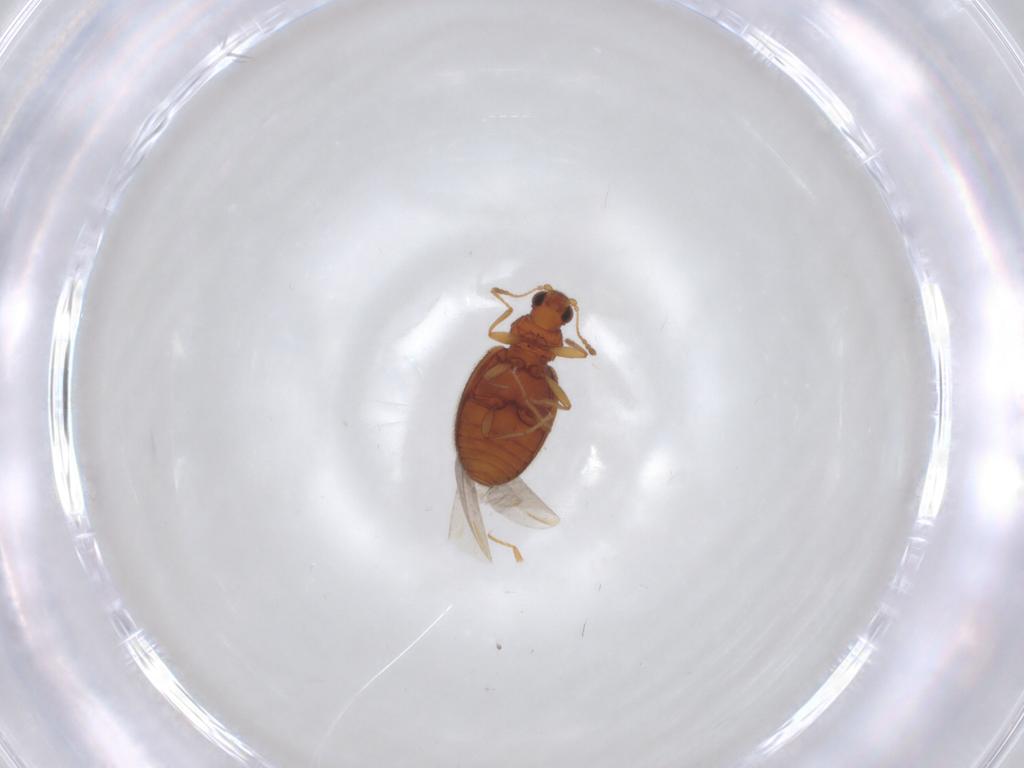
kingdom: Animalia
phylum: Arthropoda
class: Insecta
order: Coleoptera
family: Latridiidae
